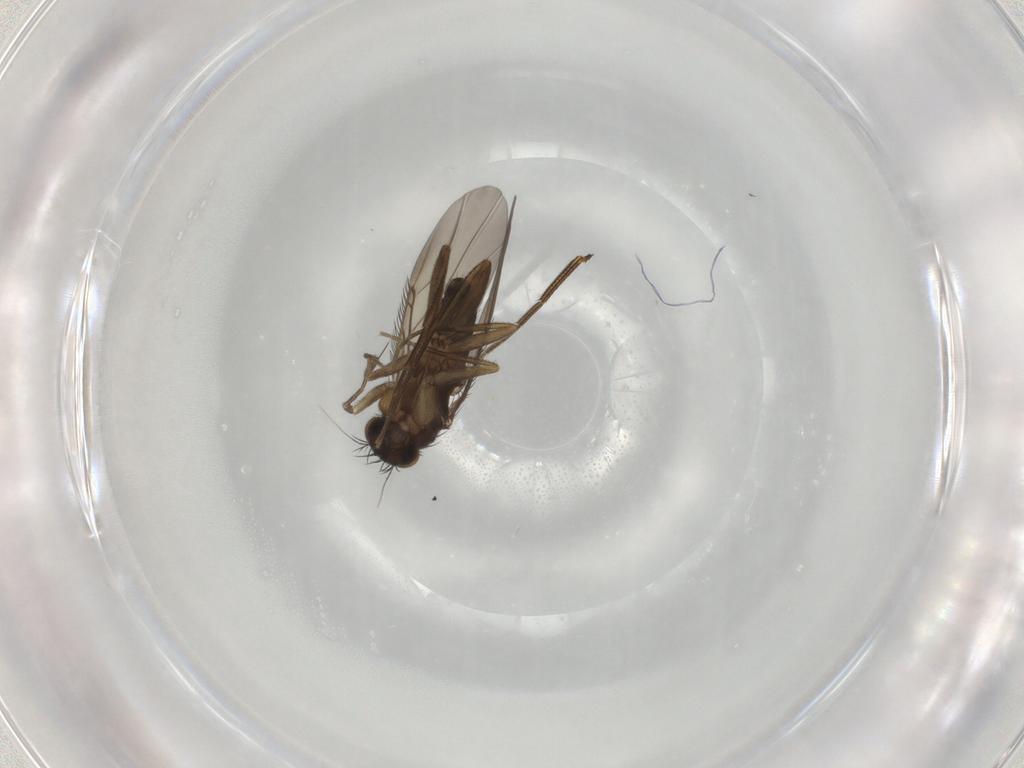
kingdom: Animalia
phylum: Arthropoda
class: Insecta
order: Diptera
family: Phoridae
